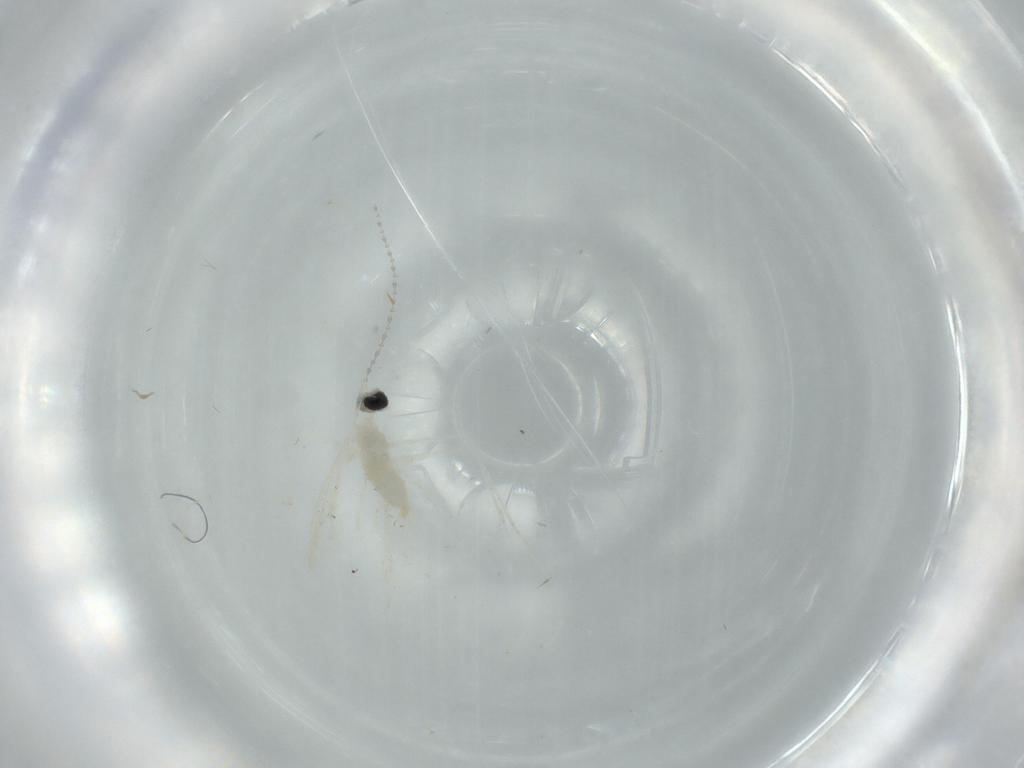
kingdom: Animalia
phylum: Arthropoda
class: Insecta
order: Diptera
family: Cecidomyiidae
